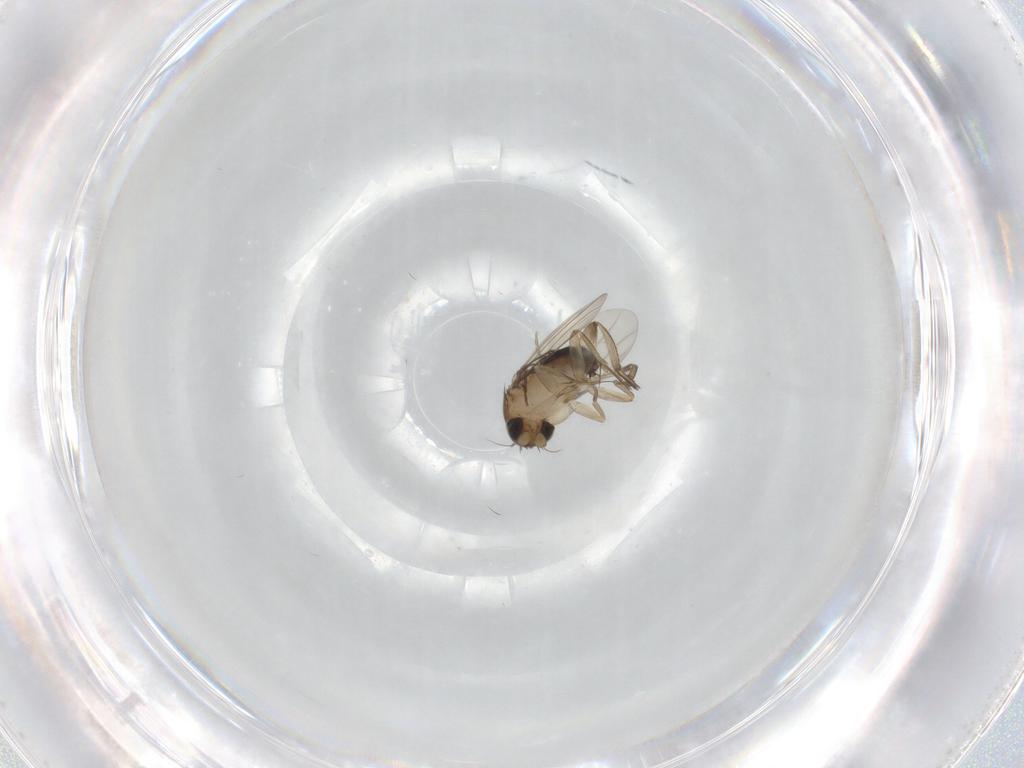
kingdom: Animalia
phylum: Arthropoda
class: Insecta
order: Diptera
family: Phoridae
